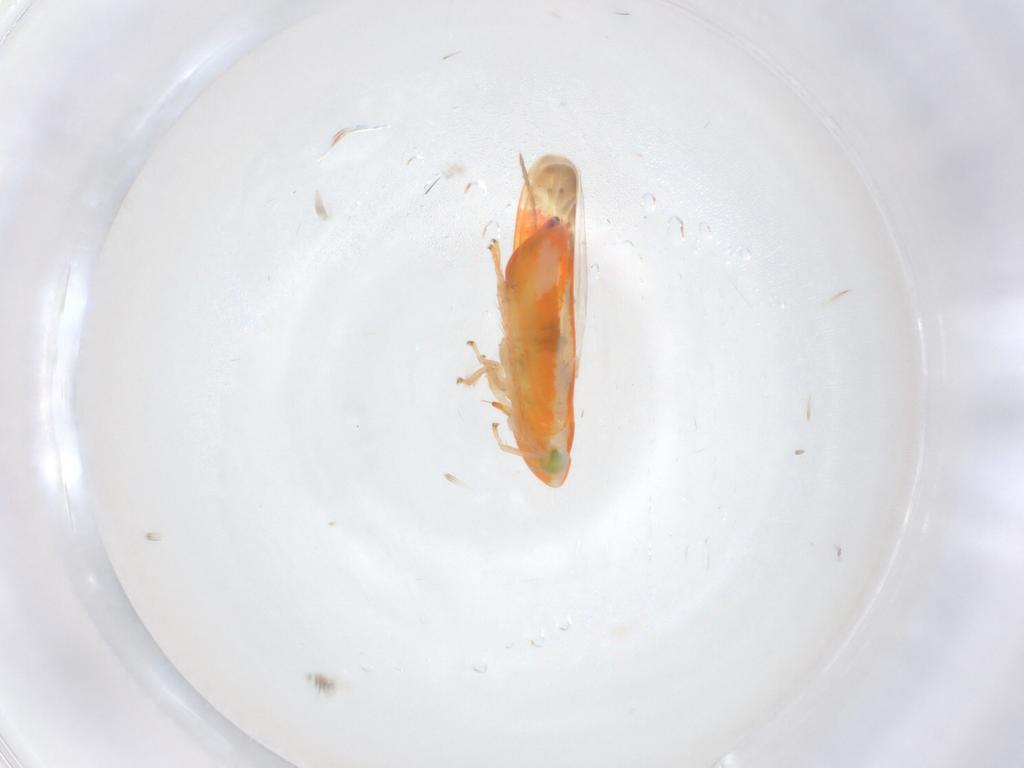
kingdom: Animalia
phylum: Arthropoda
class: Insecta
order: Hemiptera
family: Cicadellidae
